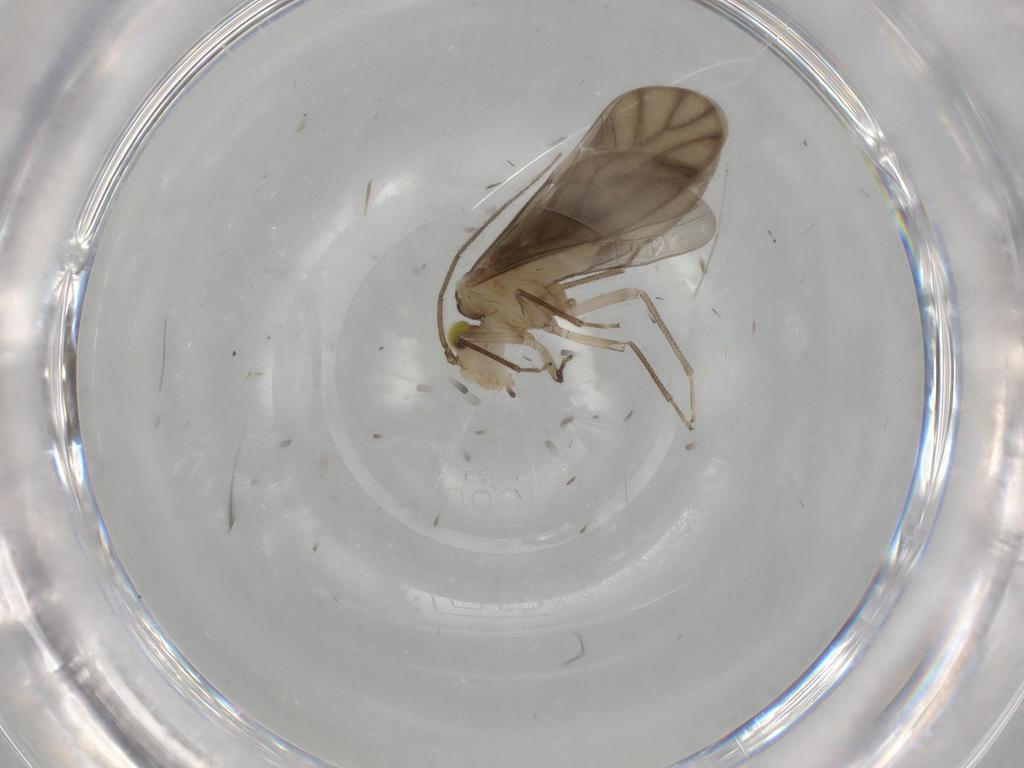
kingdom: Animalia
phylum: Arthropoda
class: Insecta
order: Psocodea
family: Caeciliusidae
